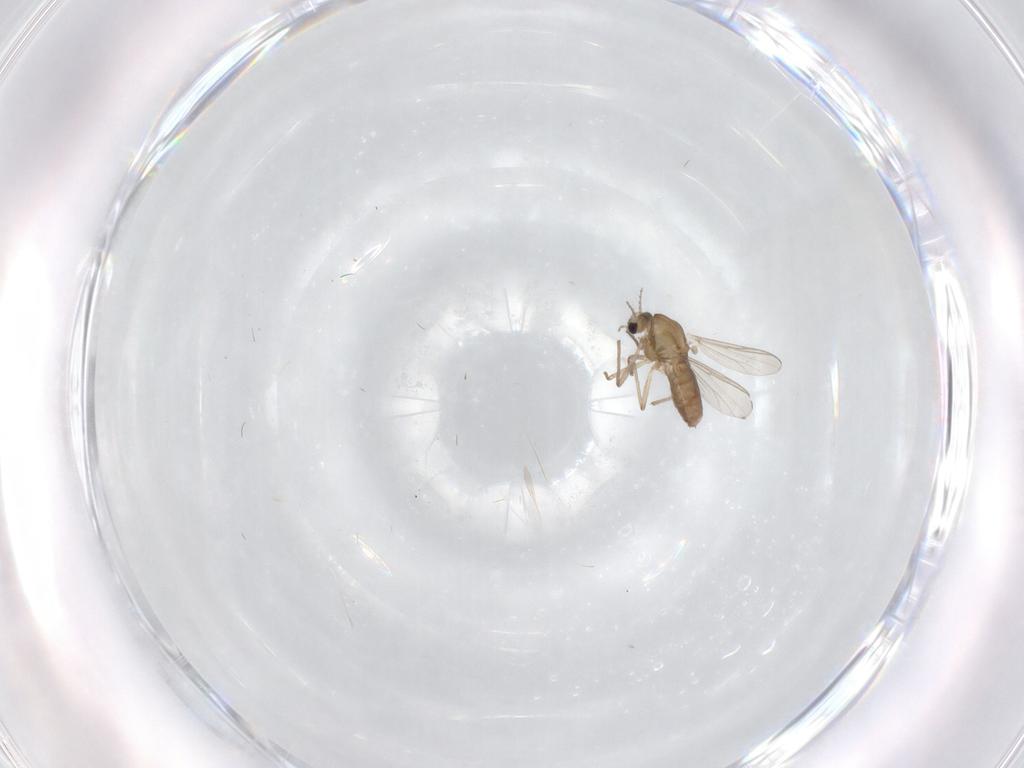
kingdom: Animalia
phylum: Arthropoda
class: Insecta
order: Diptera
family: Chironomidae
